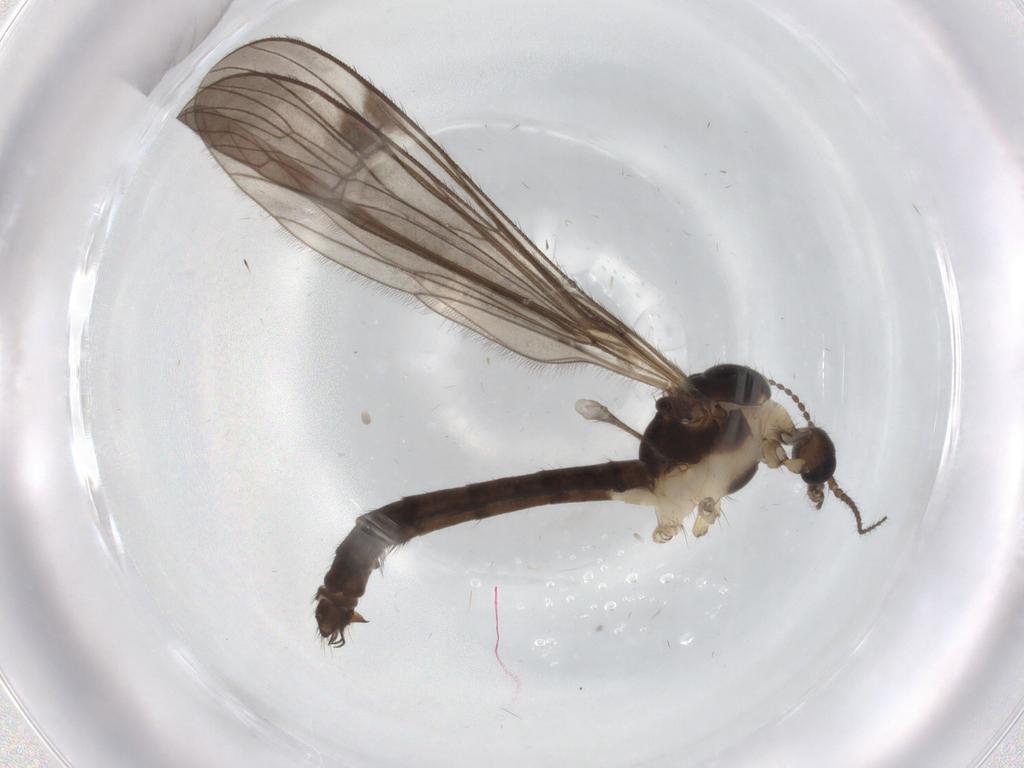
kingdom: Animalia
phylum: Arthropoda
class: Insecta
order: Diptera
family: Limoniidae
